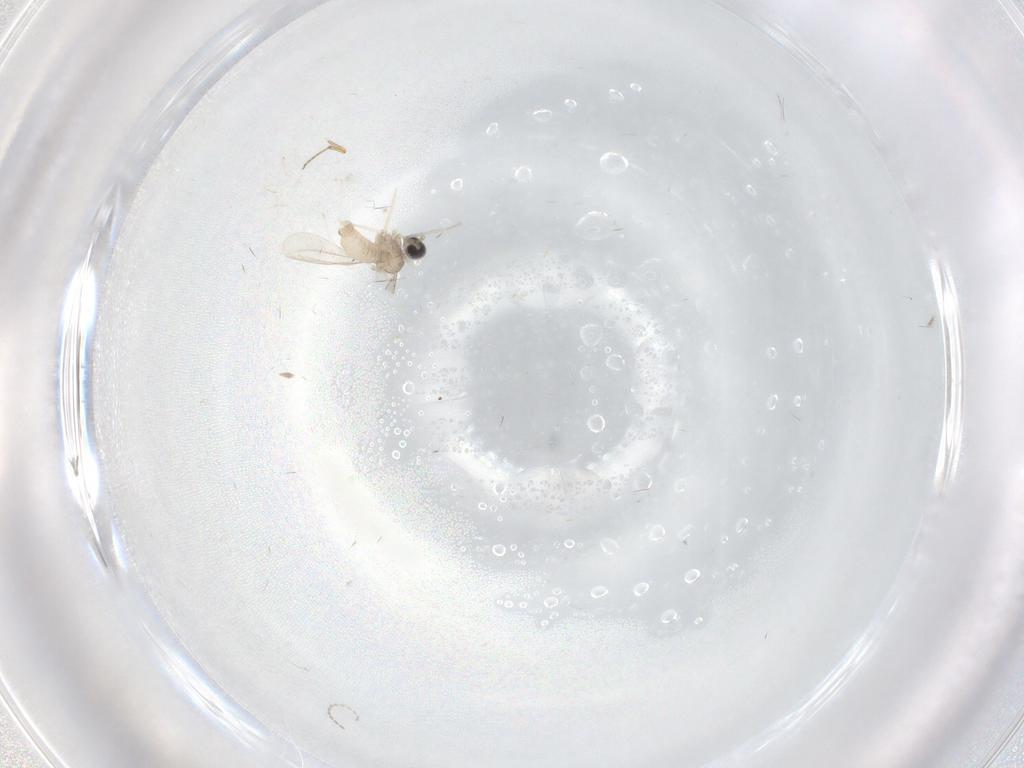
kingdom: Animalia
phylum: Arthropoda
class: Insecta
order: Diptera
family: Cecidomyiidae
